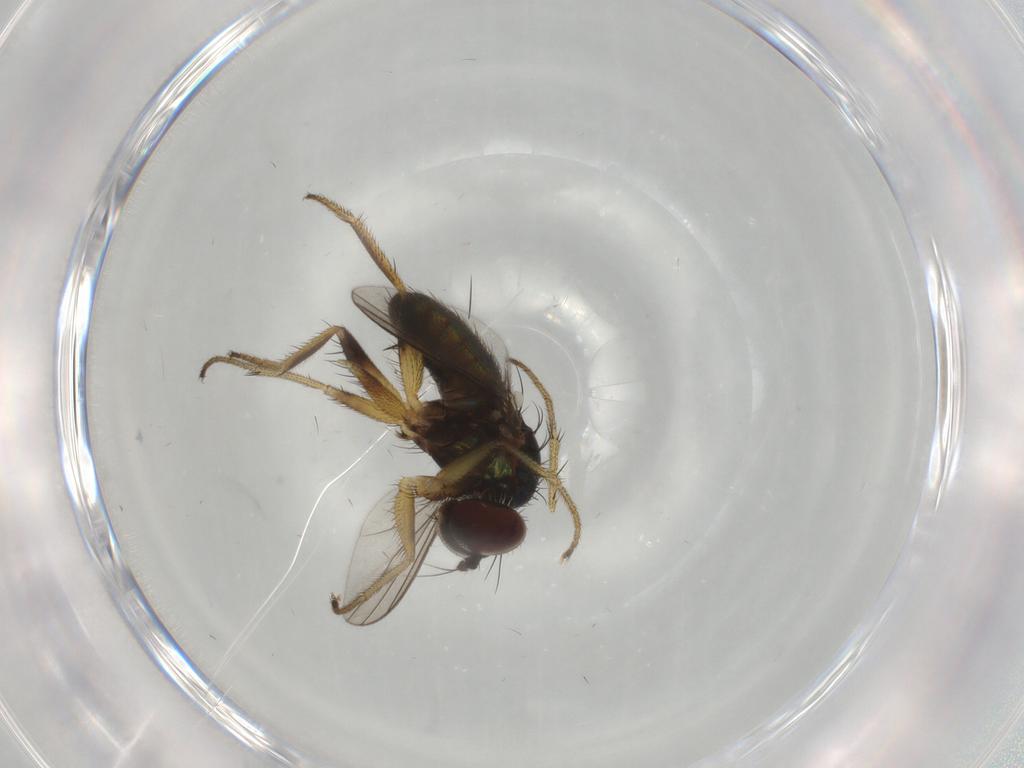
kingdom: Animalia
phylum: Arthropoda
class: Insecta
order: Diptera
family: Dolichopodidae
